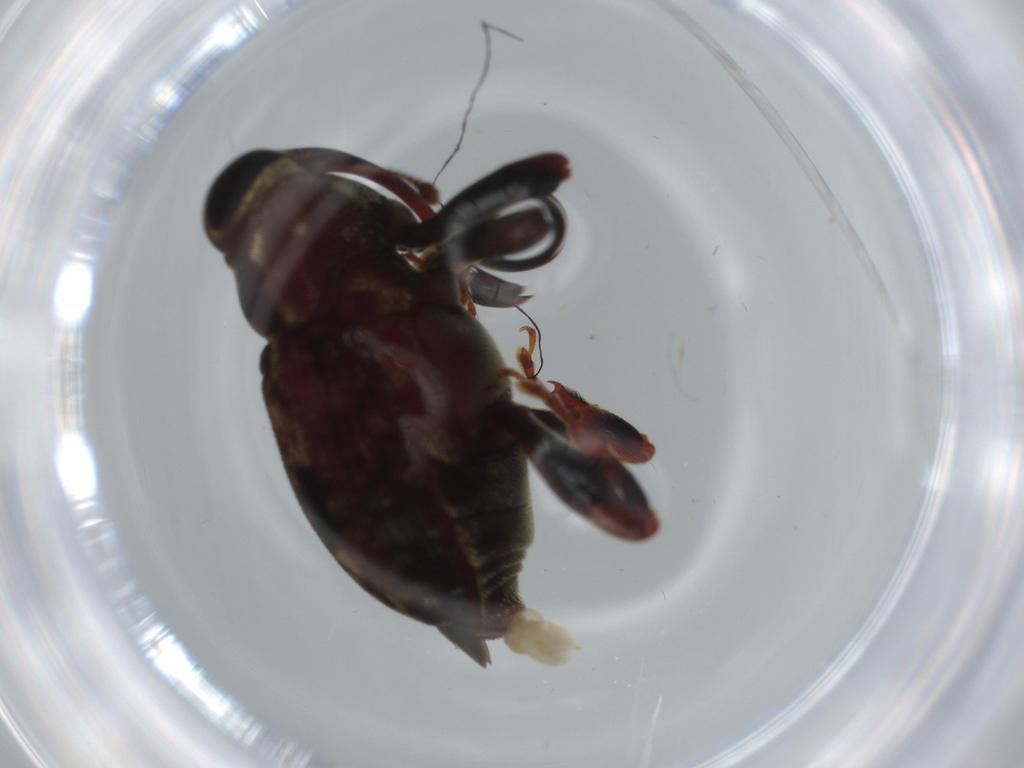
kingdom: Animalia
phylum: Arthropoda
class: Insecta
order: Coleoptera
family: Curculionidae
